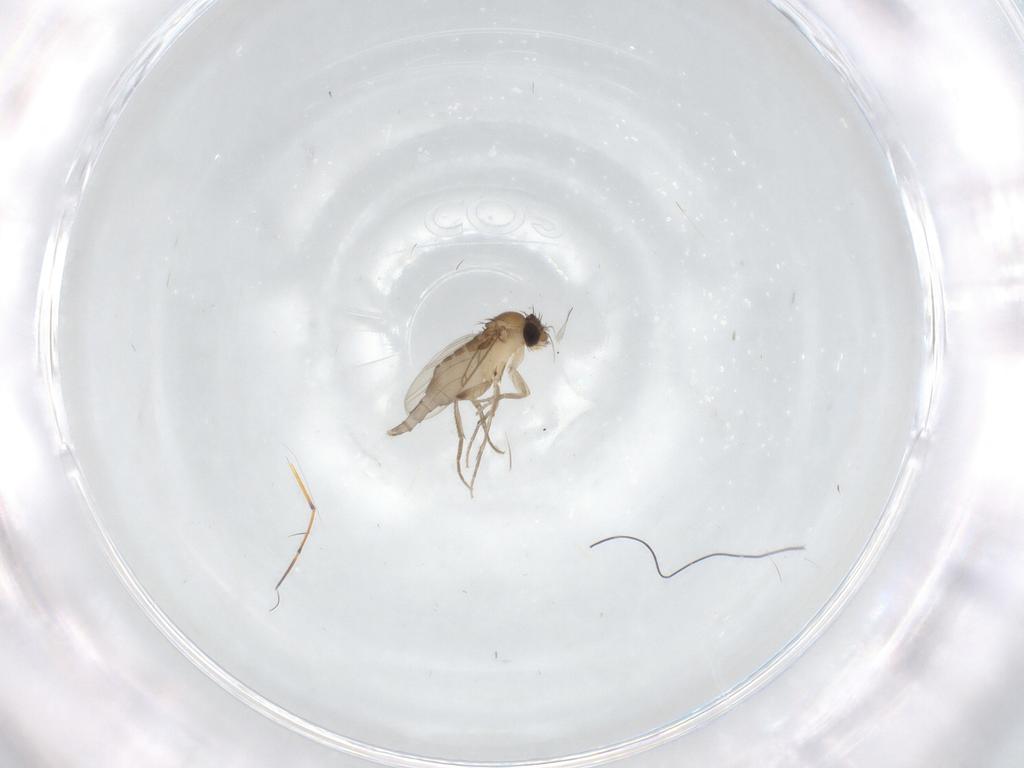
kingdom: Animalia
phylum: Arthropoda
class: Insecta
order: Diptera
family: Phoridae
